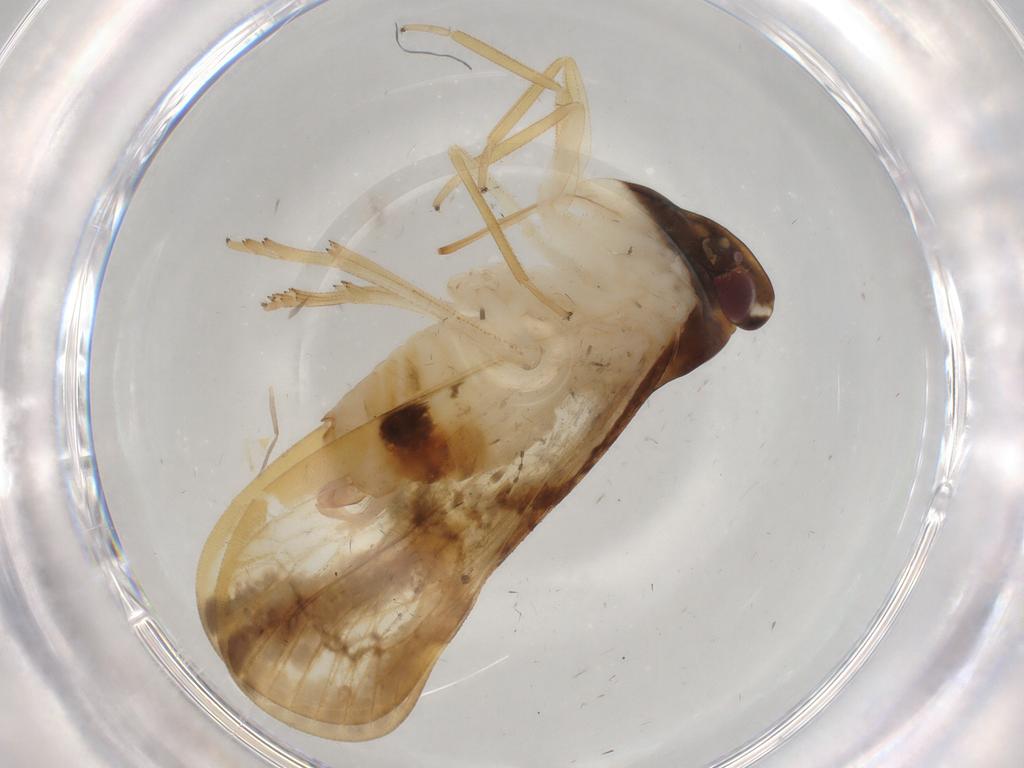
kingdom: Animalia
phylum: Arthropoda
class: Insecta
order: Hemiptera
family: Cixiidae
